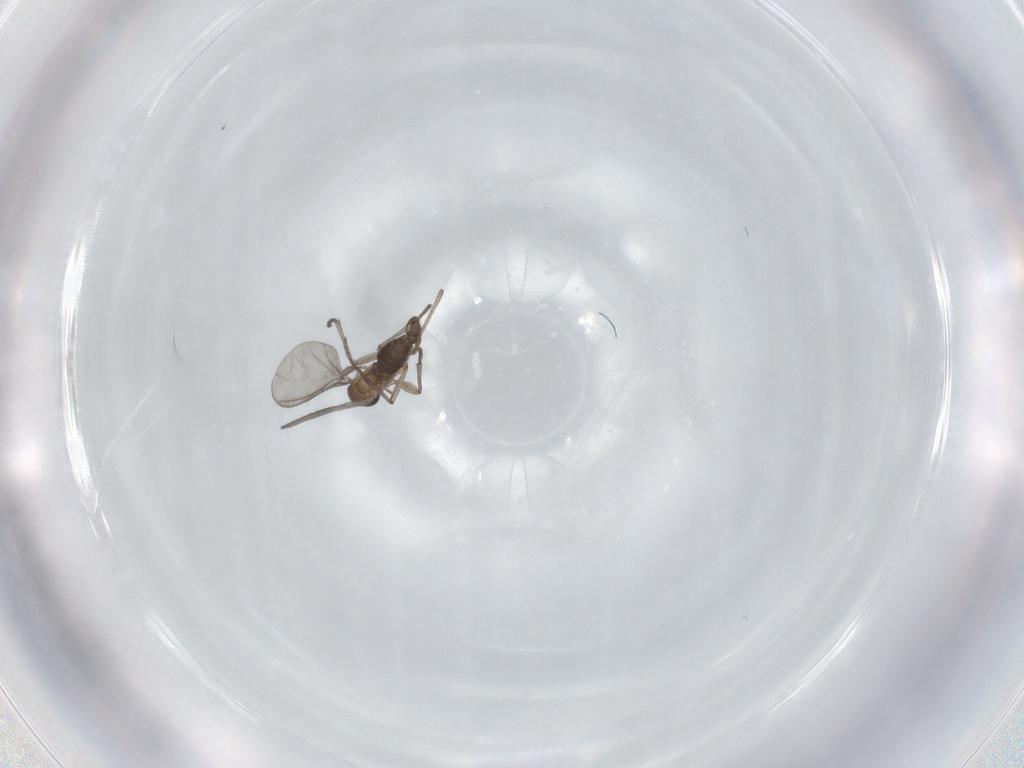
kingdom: Animalia
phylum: Arthropoda
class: Insecta
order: Diptera
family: Sciaridae
